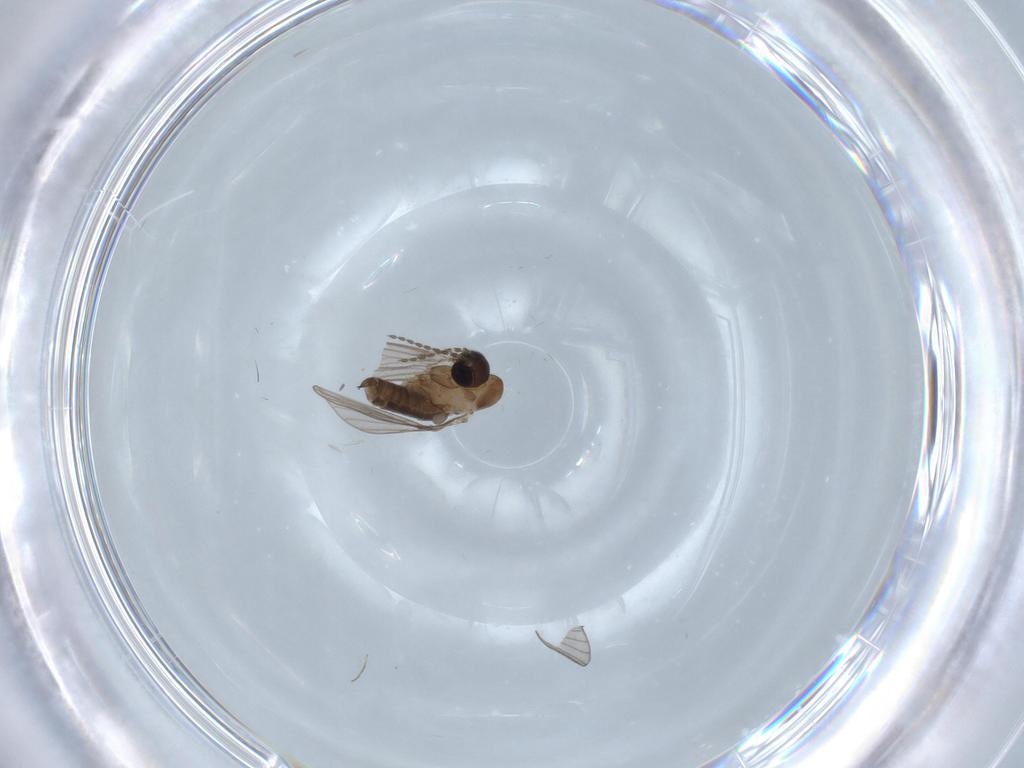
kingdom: Animalia
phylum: Arthropoda
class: Insecta
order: Diptera
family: Psychodidae
